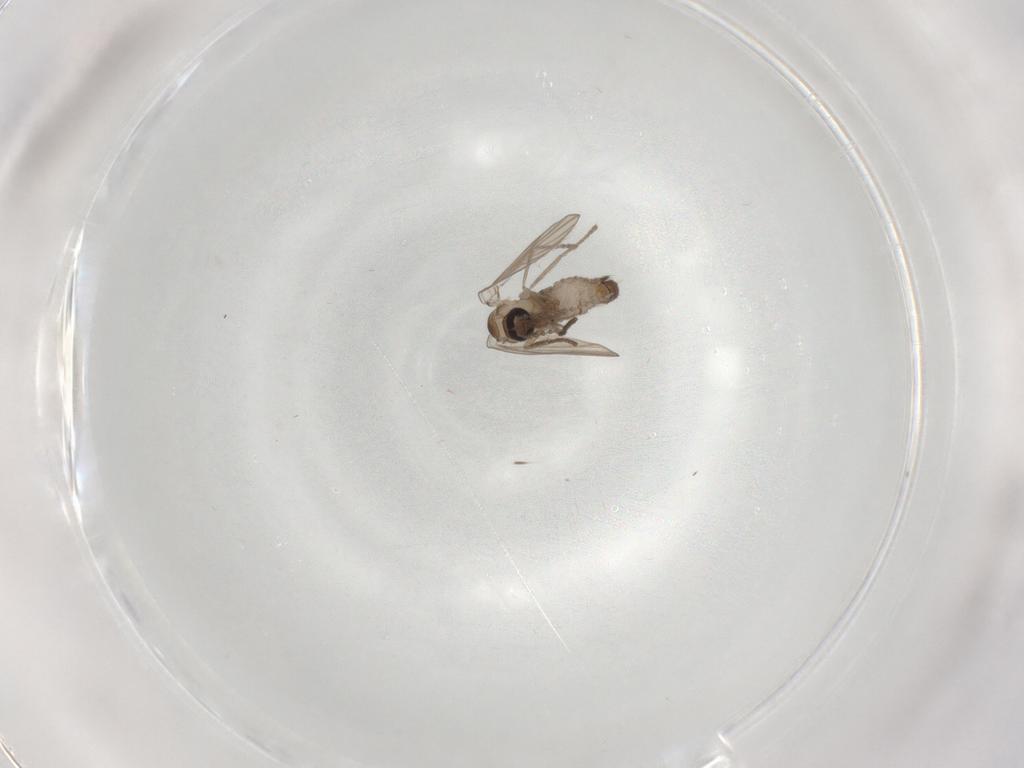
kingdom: Animalia
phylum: Arthropoda
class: Insecta
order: Diptera
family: Psychodidae
